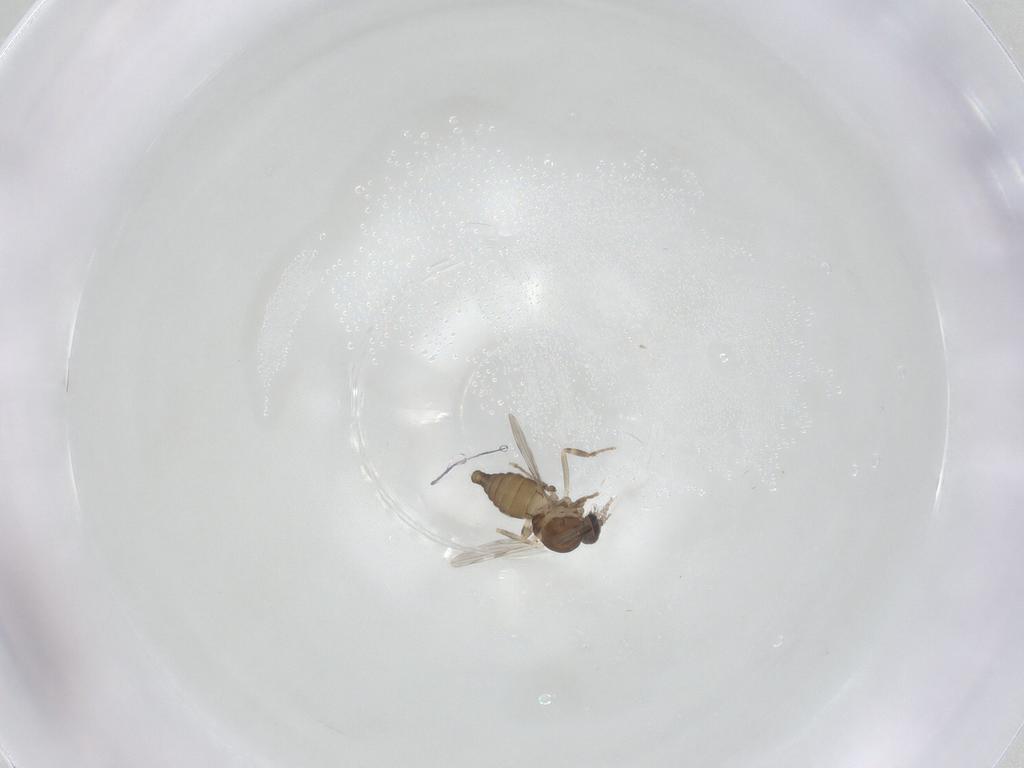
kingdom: Animalia
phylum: Arthropoda
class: Insecta
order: Diptera
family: Ceratopogonidae
